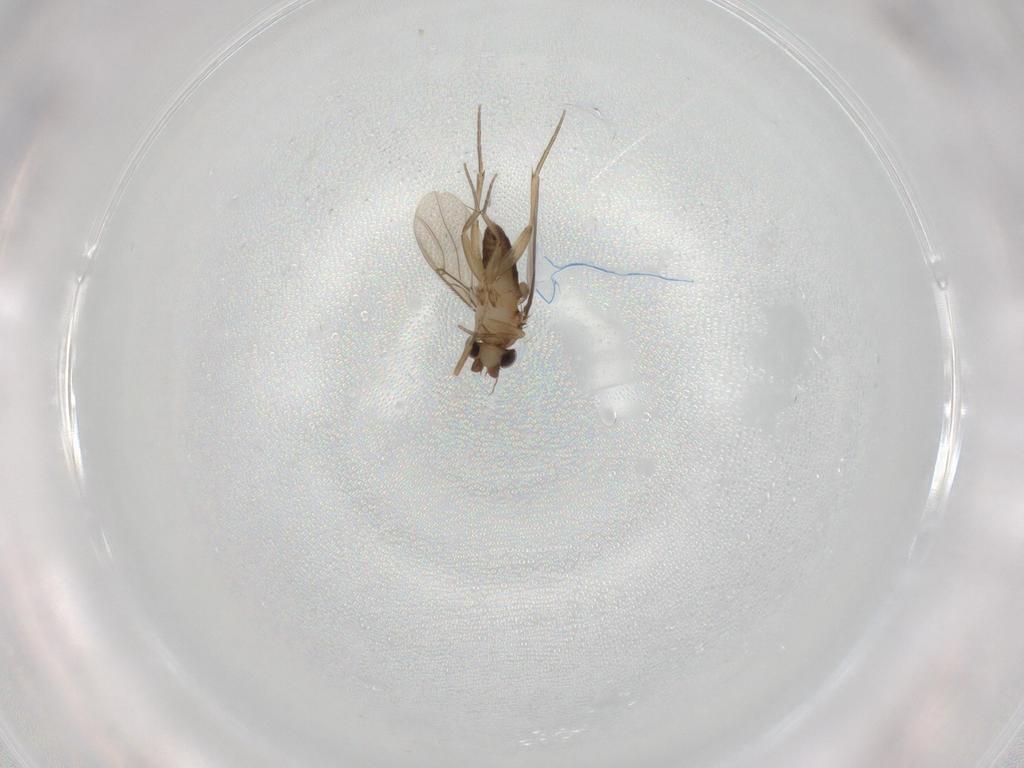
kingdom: Animalia
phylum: Arthropoda
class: Insecta
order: Diptera
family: Phoridae
